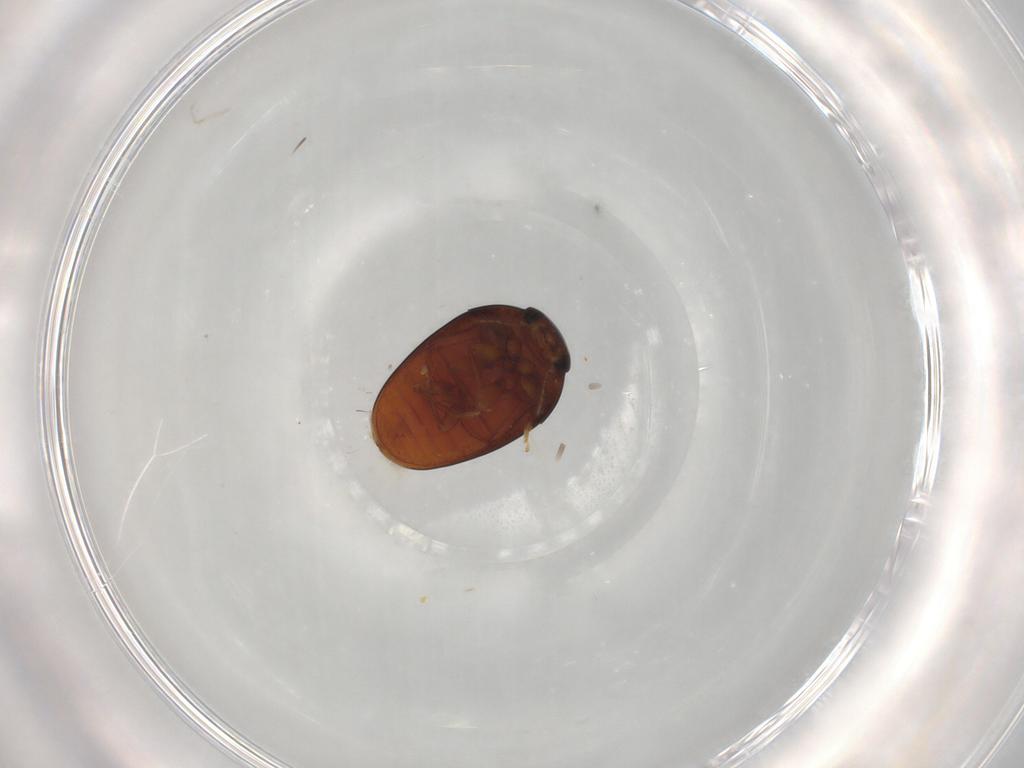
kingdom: Animalia
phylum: Arthropoda
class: Insecta
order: Coleoptera
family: Phalacridae
